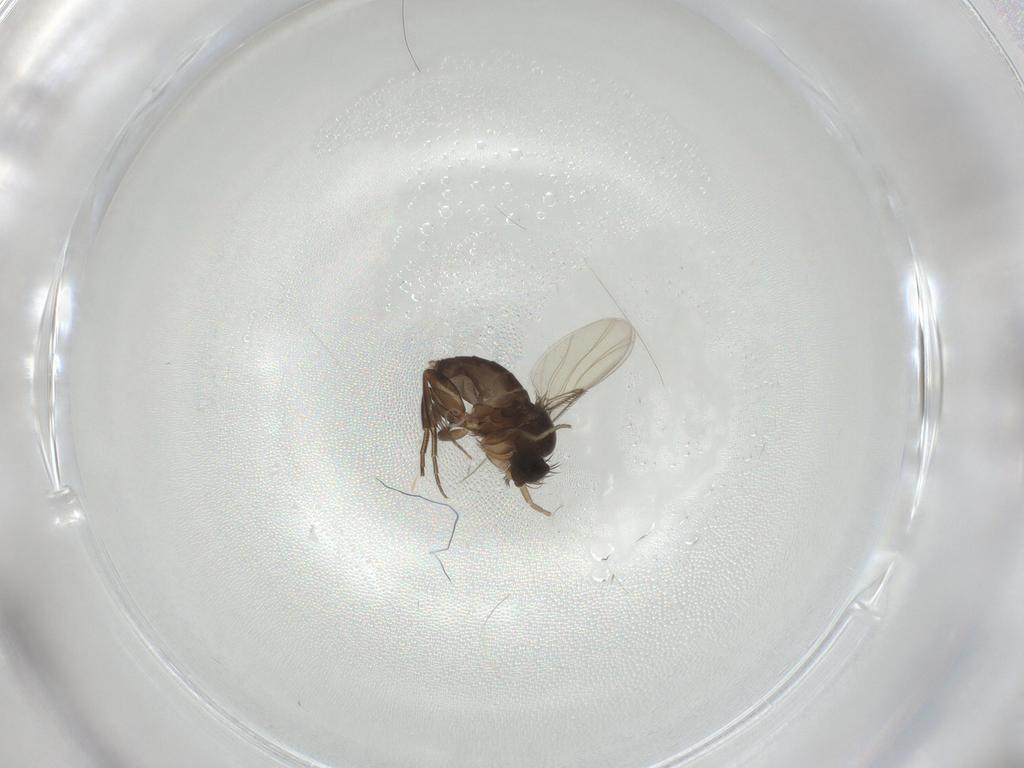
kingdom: Animalia
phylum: Arthropoda
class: Insecta
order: Diptera
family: Phoridae
